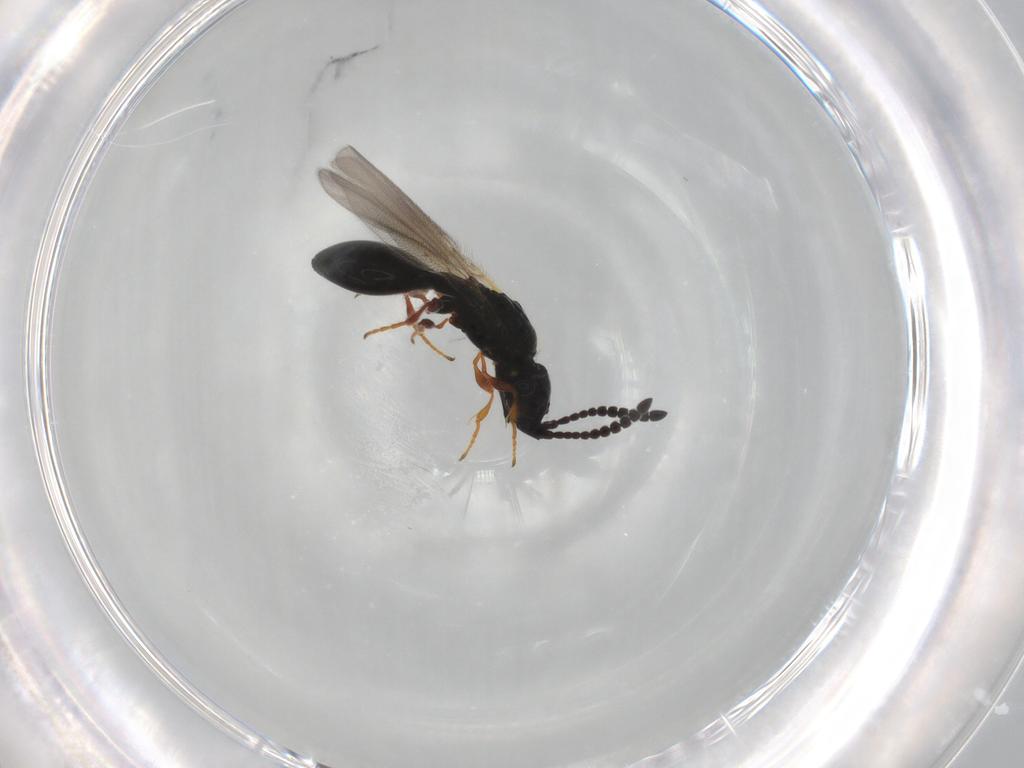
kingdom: Animalia
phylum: Arthropoda
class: Insecta
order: Hymenoptera
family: Diapriidae
